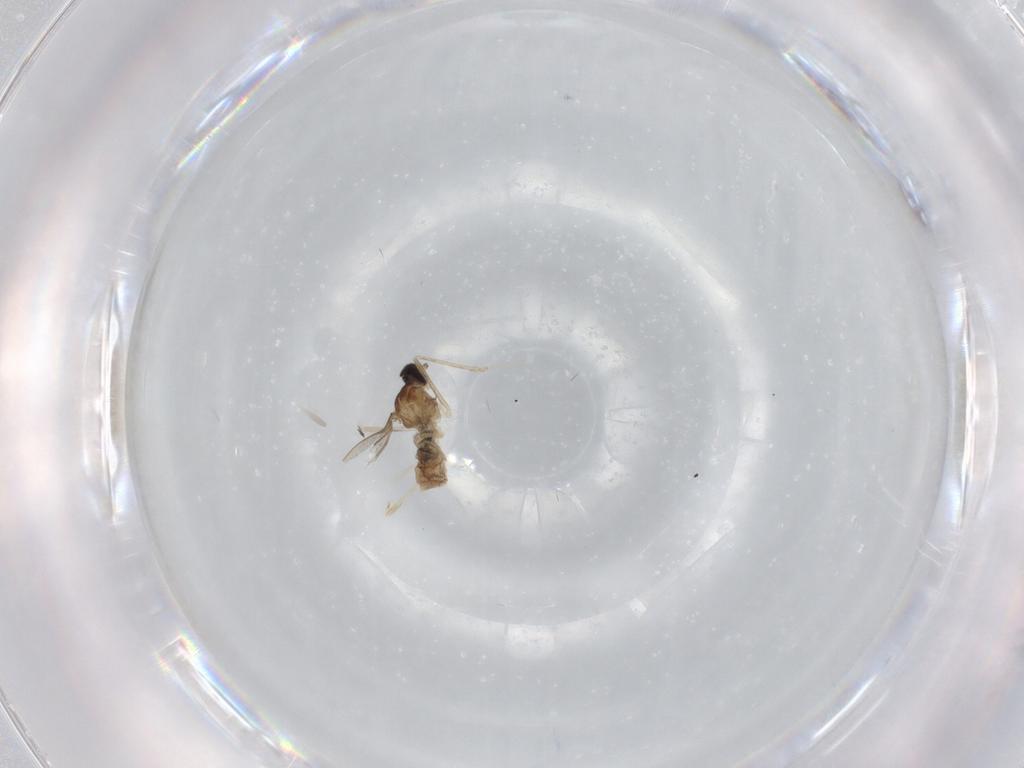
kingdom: Animalia
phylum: Arthropoda
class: Insecta
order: Diptera
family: Cecidomyiidae
